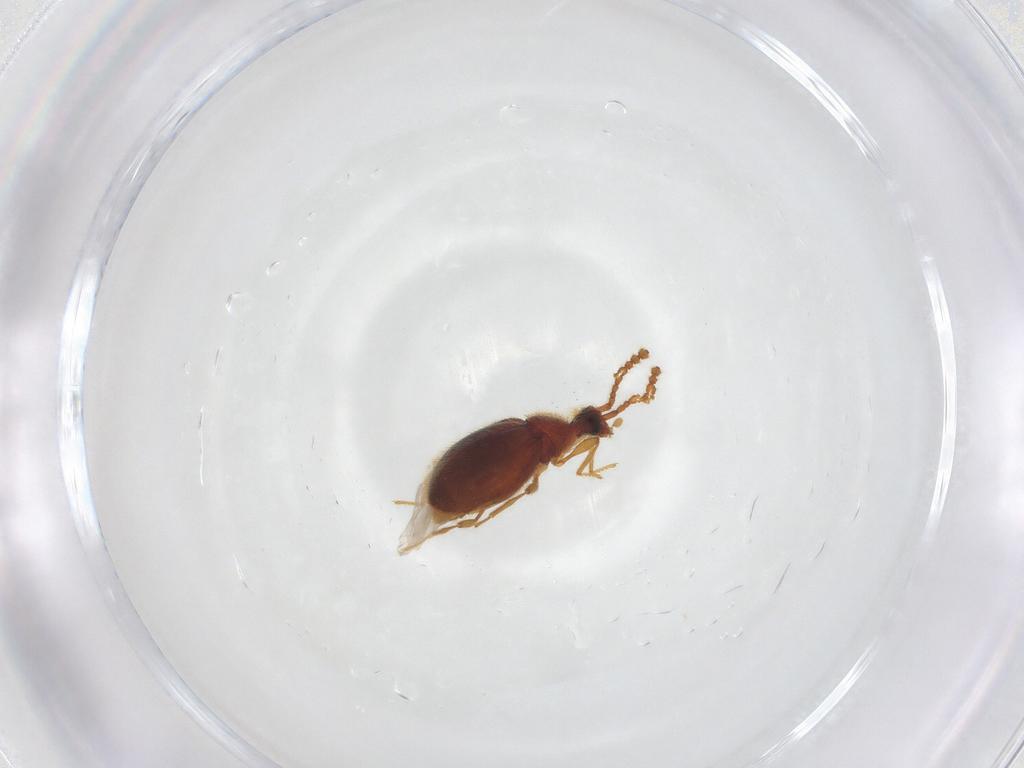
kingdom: Animalia
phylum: Arthropoda
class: Insecta
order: Coleoptera
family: Staphylinidae
